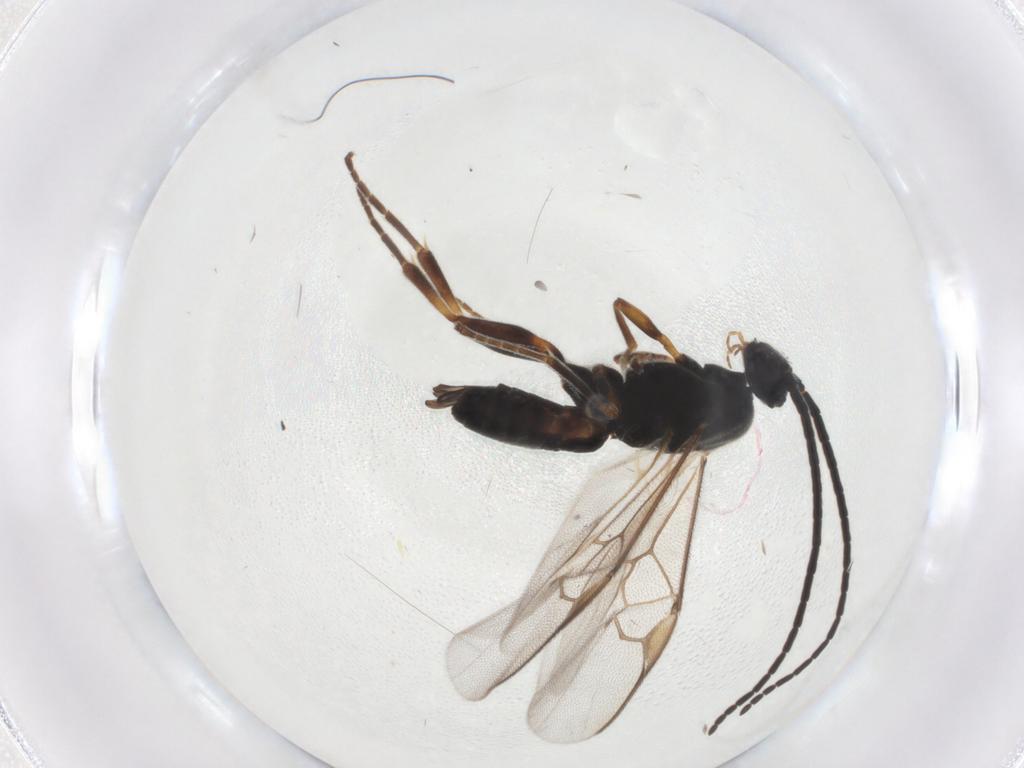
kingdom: Animalia
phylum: Arthropoda
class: Insecta
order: Hymenoptera
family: Braconidae
